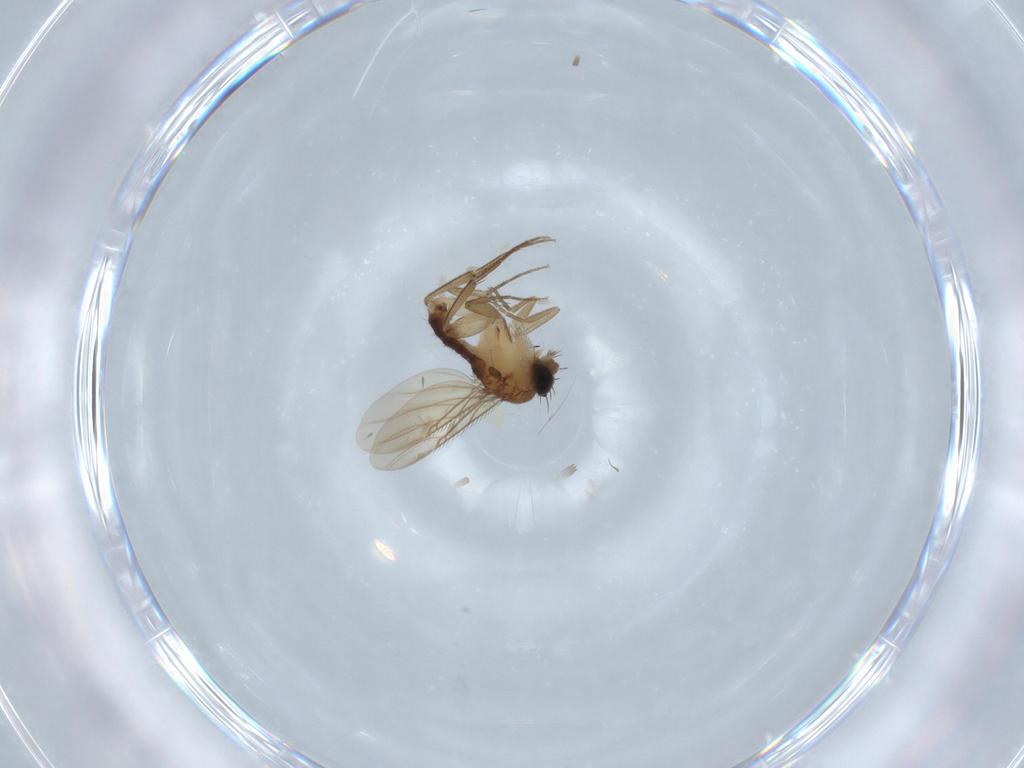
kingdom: Animalia
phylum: Arthropoda
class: Insecta
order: Diptera
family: Phoridae
